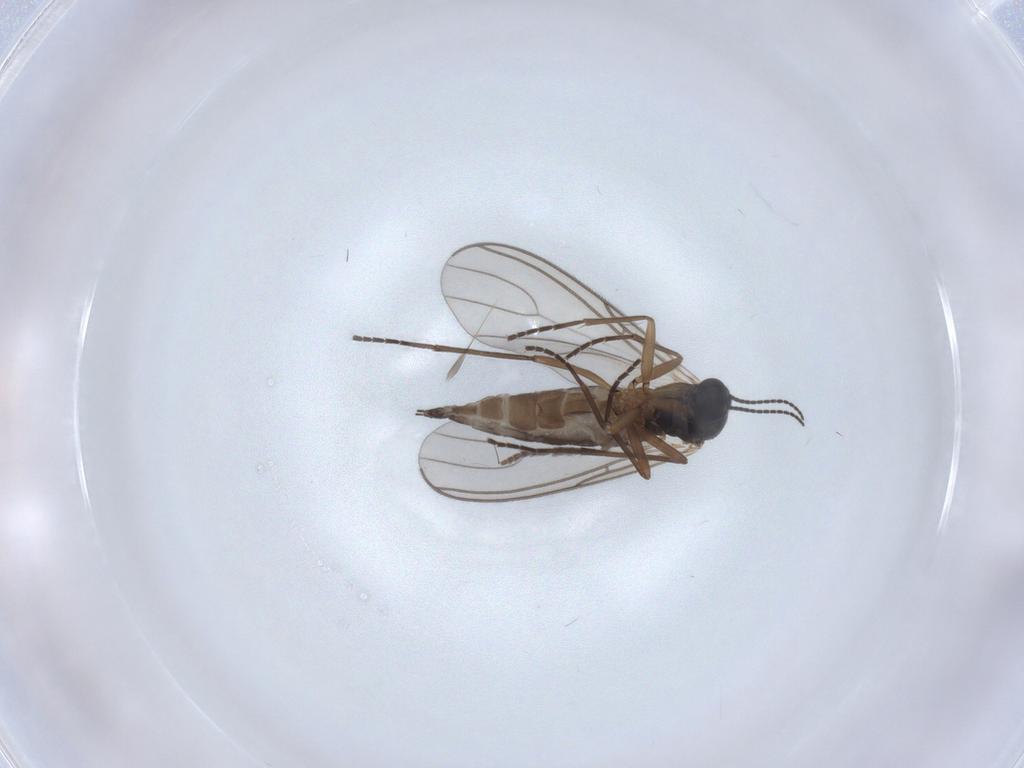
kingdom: Animalia
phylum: Arthropoda
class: Insecta
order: Diptera
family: Sciaridae
